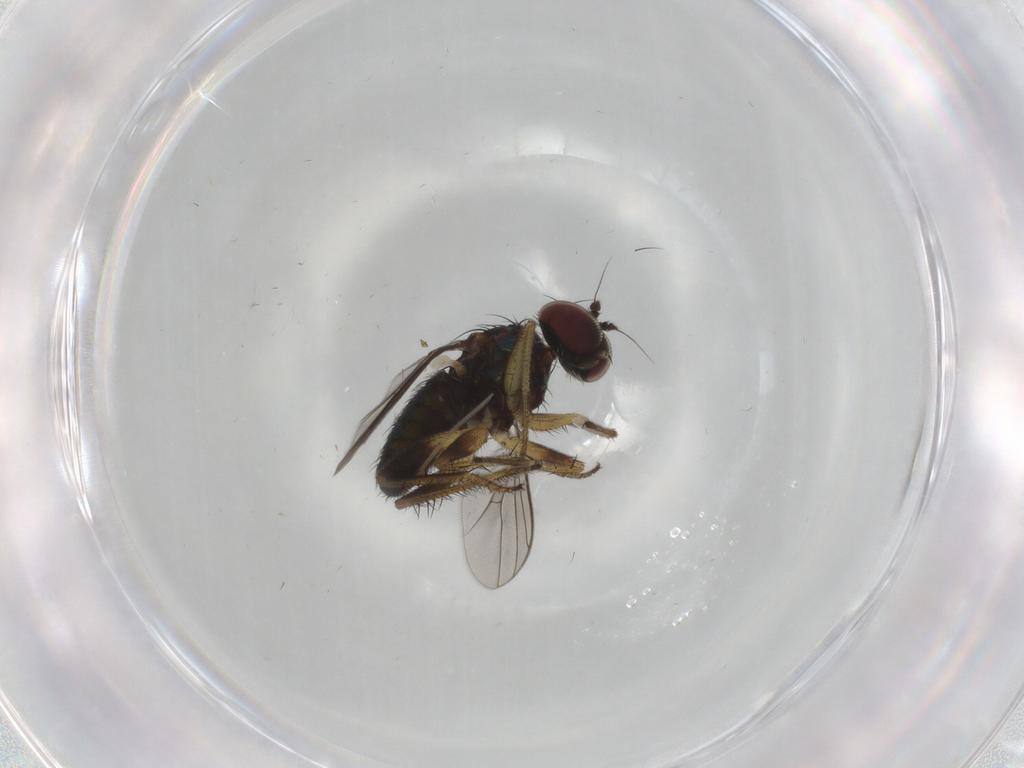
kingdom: Animalia
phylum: Arthropoda
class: Insecta
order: Diptera
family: Dolichopodidae
